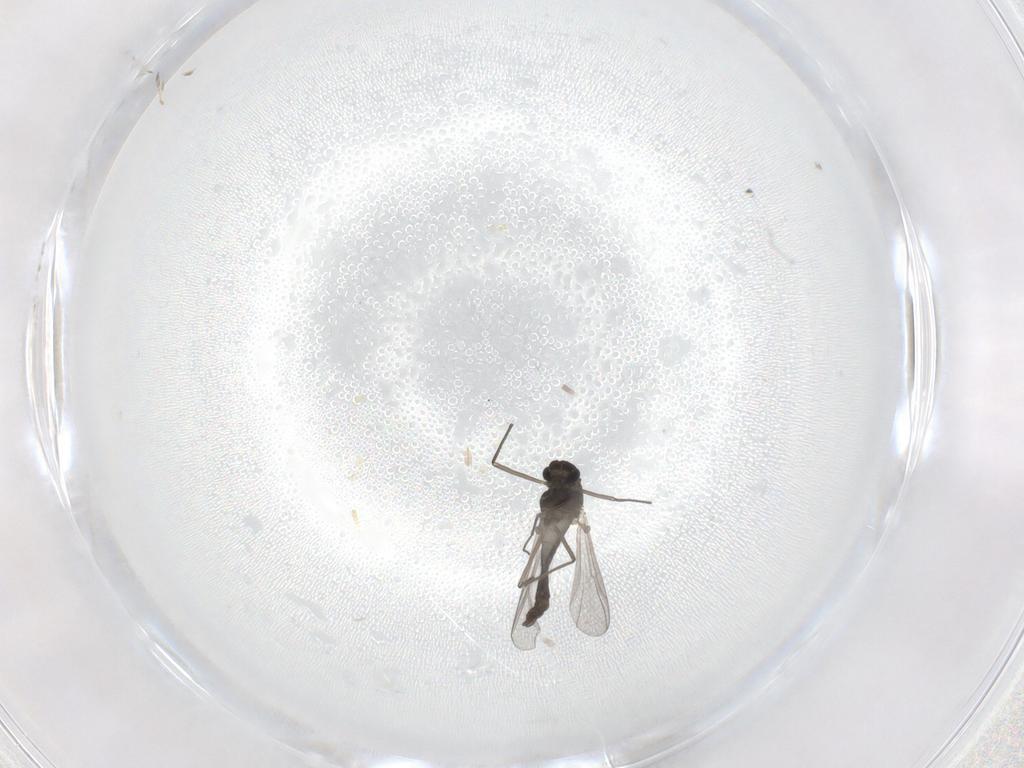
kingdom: Animalia
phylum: Arthropoda
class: Insecta
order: Diptera
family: Chironomidae
